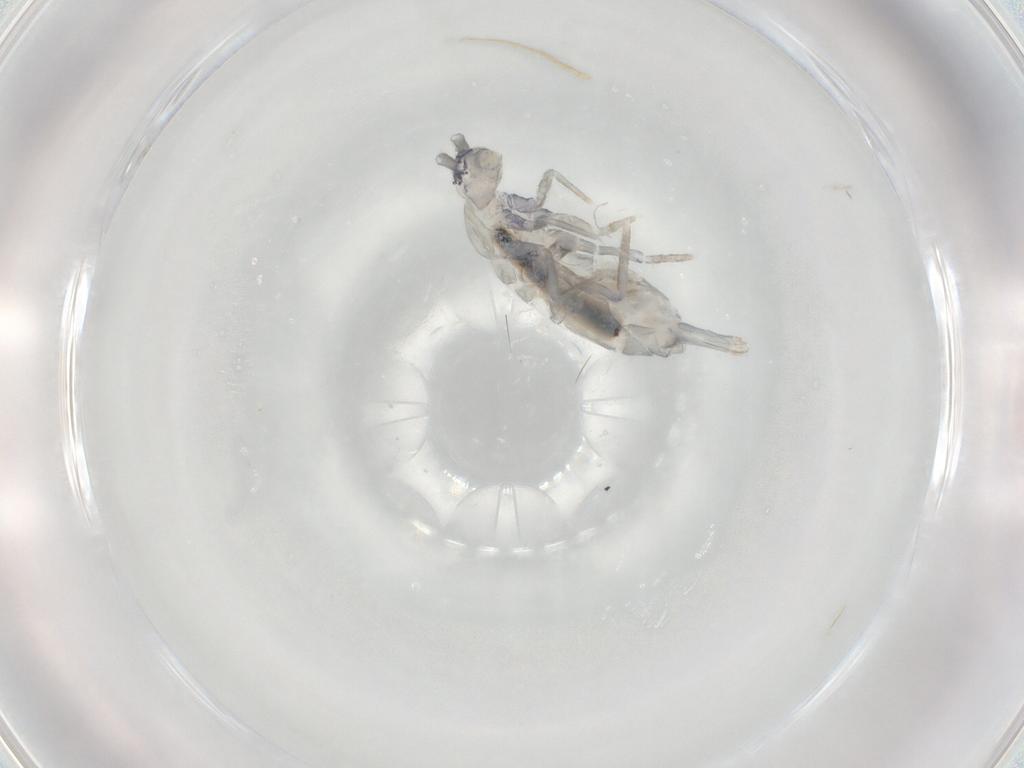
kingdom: Animalia
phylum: Arthropoda
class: Collembola
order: Entomobryomorpha
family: Tomoceridae
